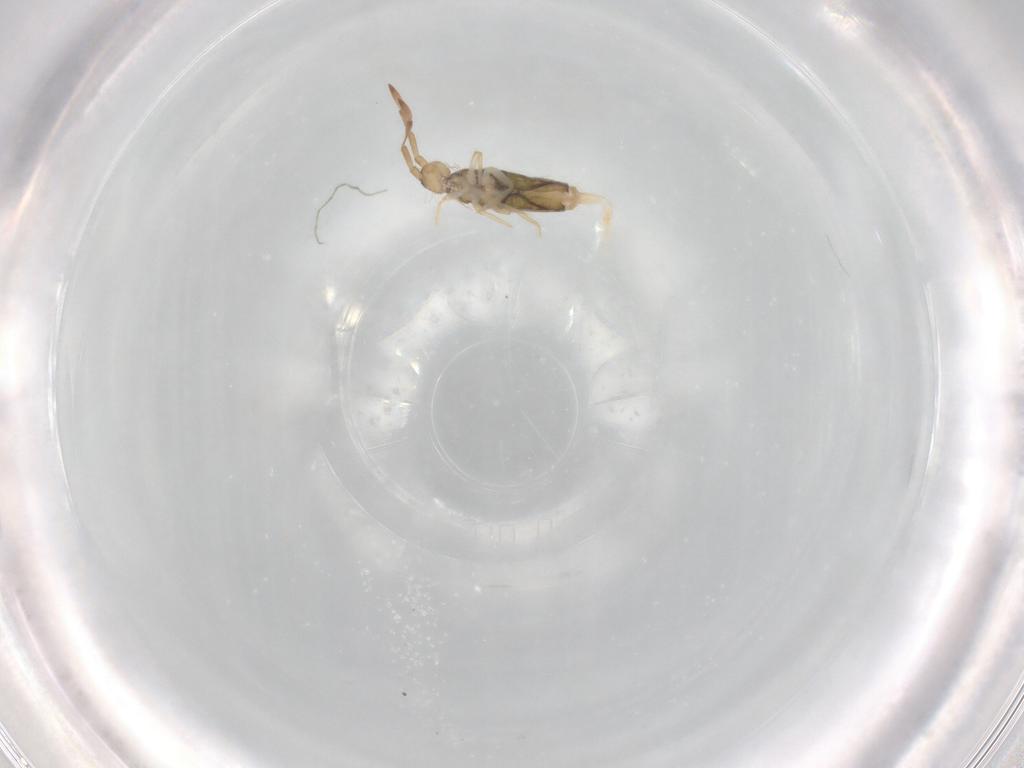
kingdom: Animalia
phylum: Arthropoda
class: Collembola
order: Entomobryomorpha
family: Entomobryidae
